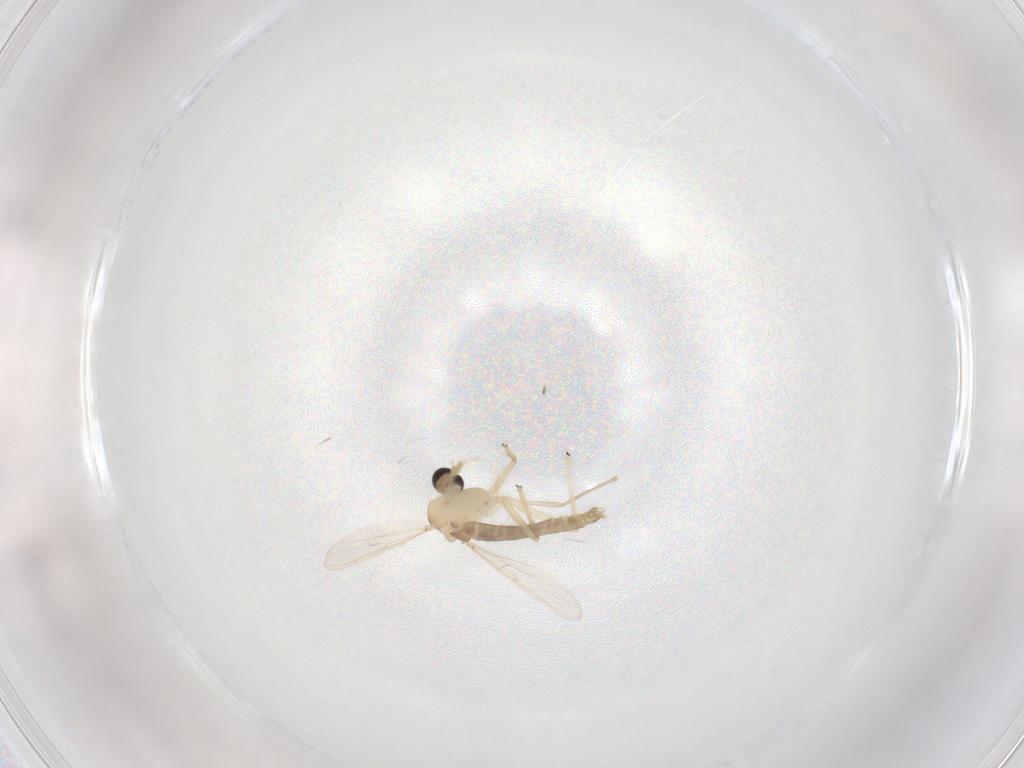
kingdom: Animalia
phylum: Arthropoda
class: Insecta
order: Diptera
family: Chironomidae
